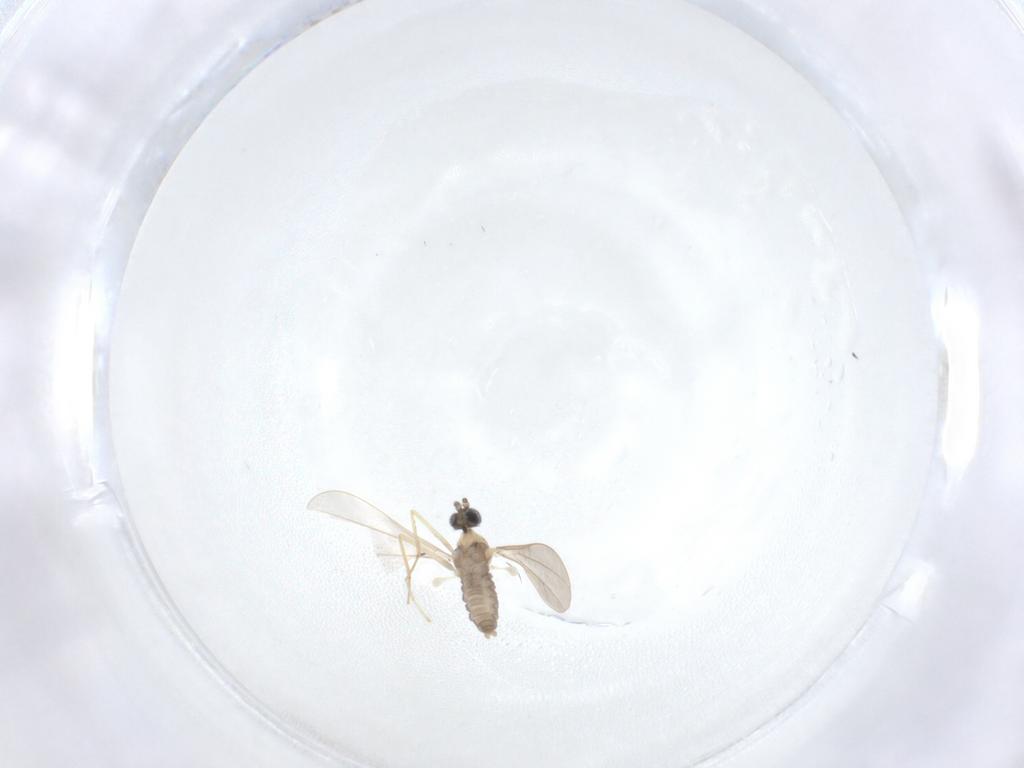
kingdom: Animalia
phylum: Arthropoda
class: Insecta
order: Diptera
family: Cecidomyiidae
